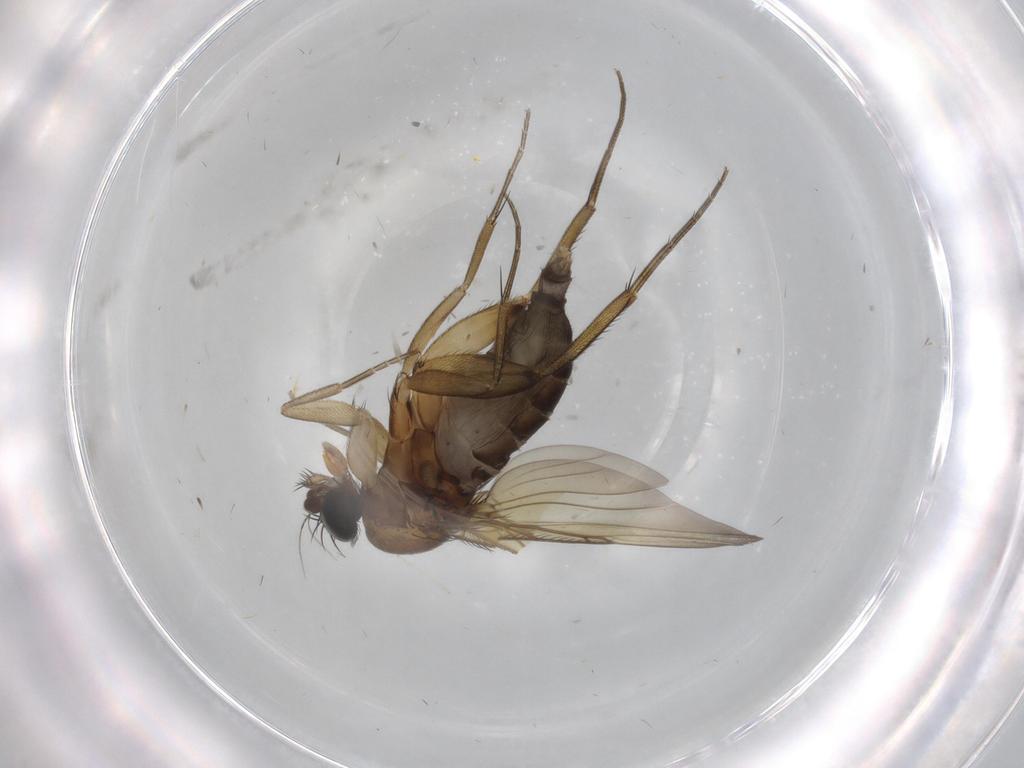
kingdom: Animalia
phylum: Arthropoda
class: Insecta
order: Diptera
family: Phoridae
